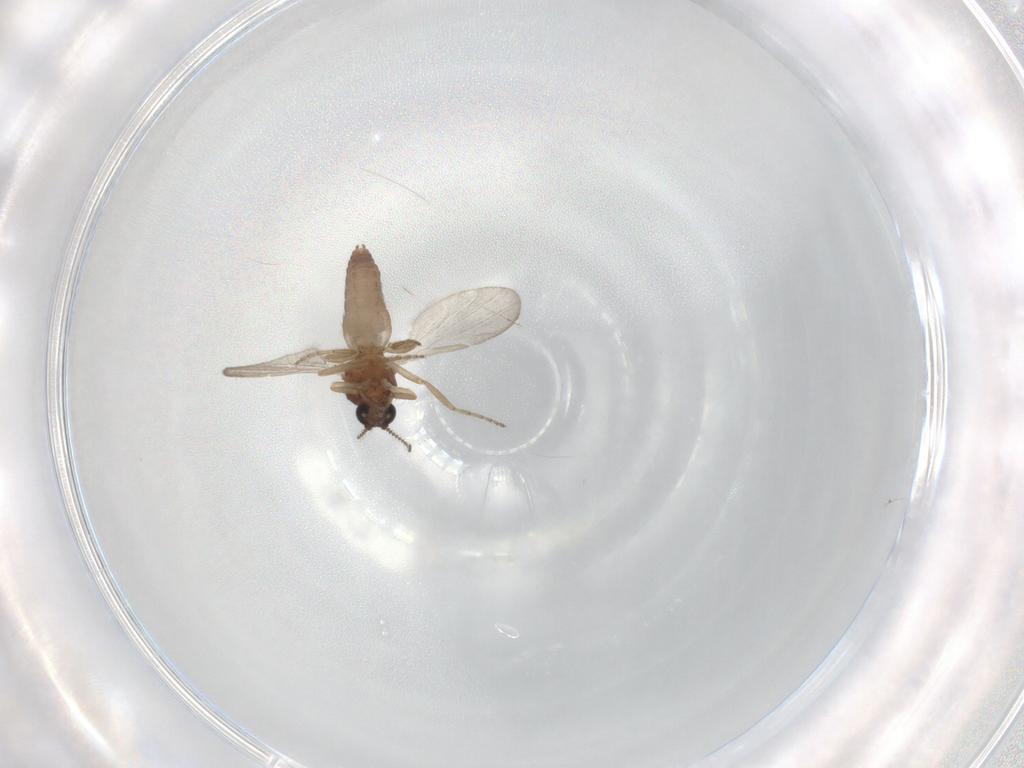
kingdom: Animalia
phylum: Arthropoda
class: Insecta
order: Diptera
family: Ceratopogonidae
